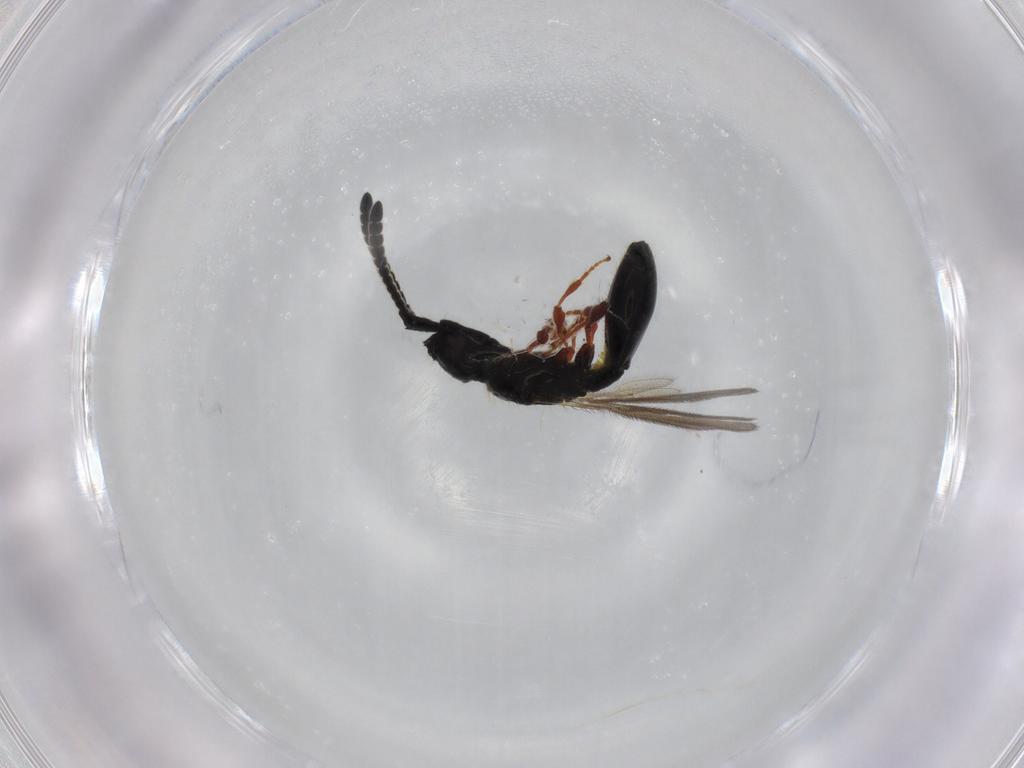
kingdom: Animalia
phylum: Arthropoda
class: Insecta
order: Hymenoptera
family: Diapriidae
